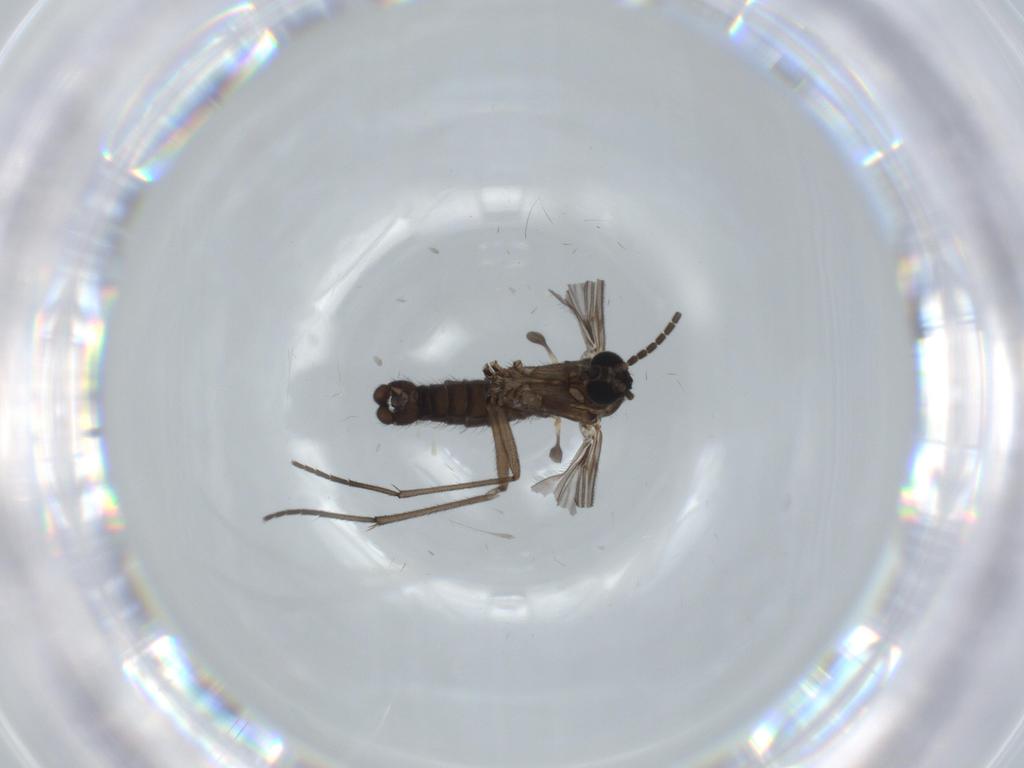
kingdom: Animalia
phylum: Arthropoda
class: Insecta
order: Diptera
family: Sciaridae
